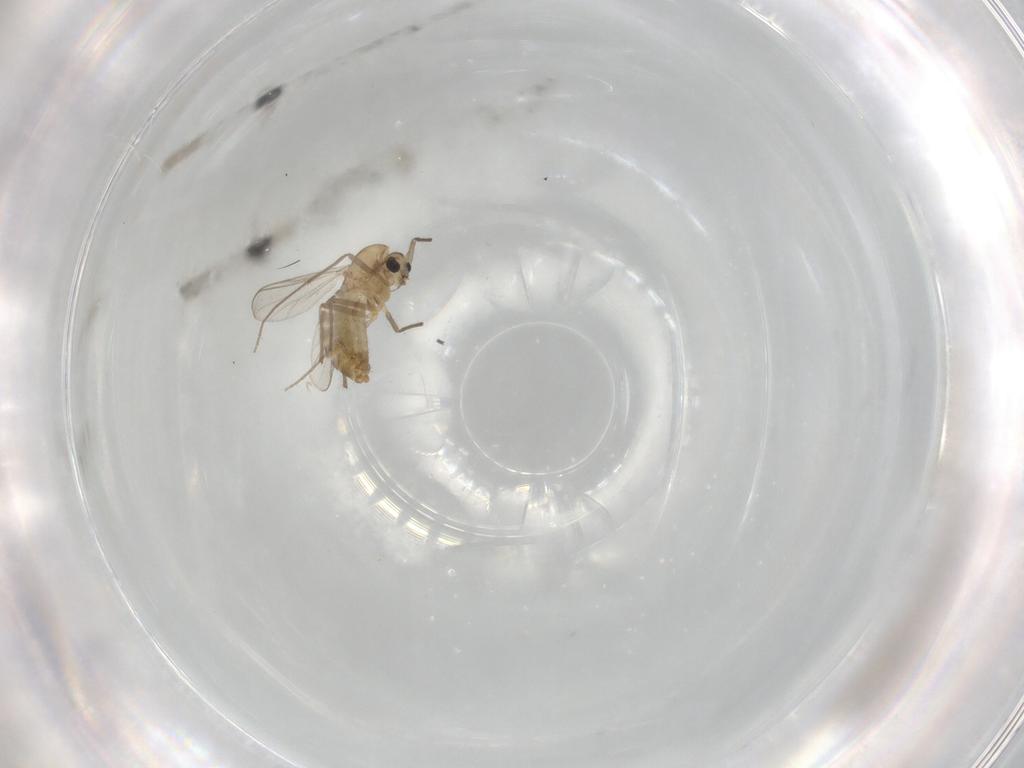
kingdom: Animalia
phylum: Arthropoda
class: Insecta
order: Diptera
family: Chironomidae
